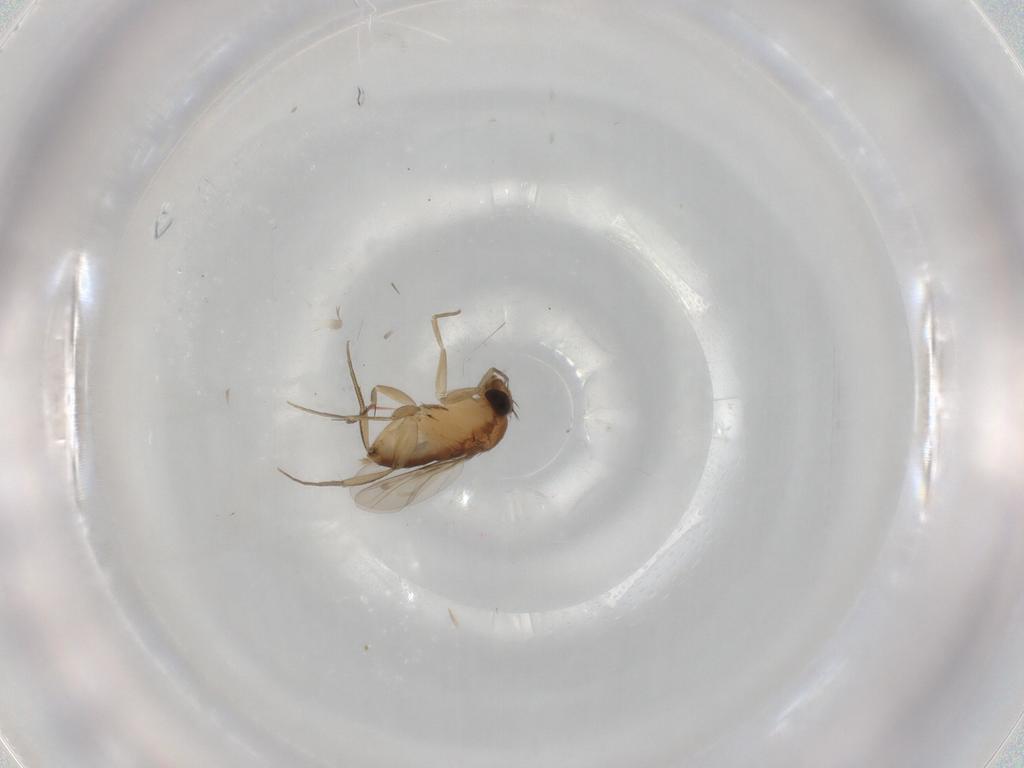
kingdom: Animalia
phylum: Arthropoda
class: Insecta
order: Diptera
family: Phoridae
